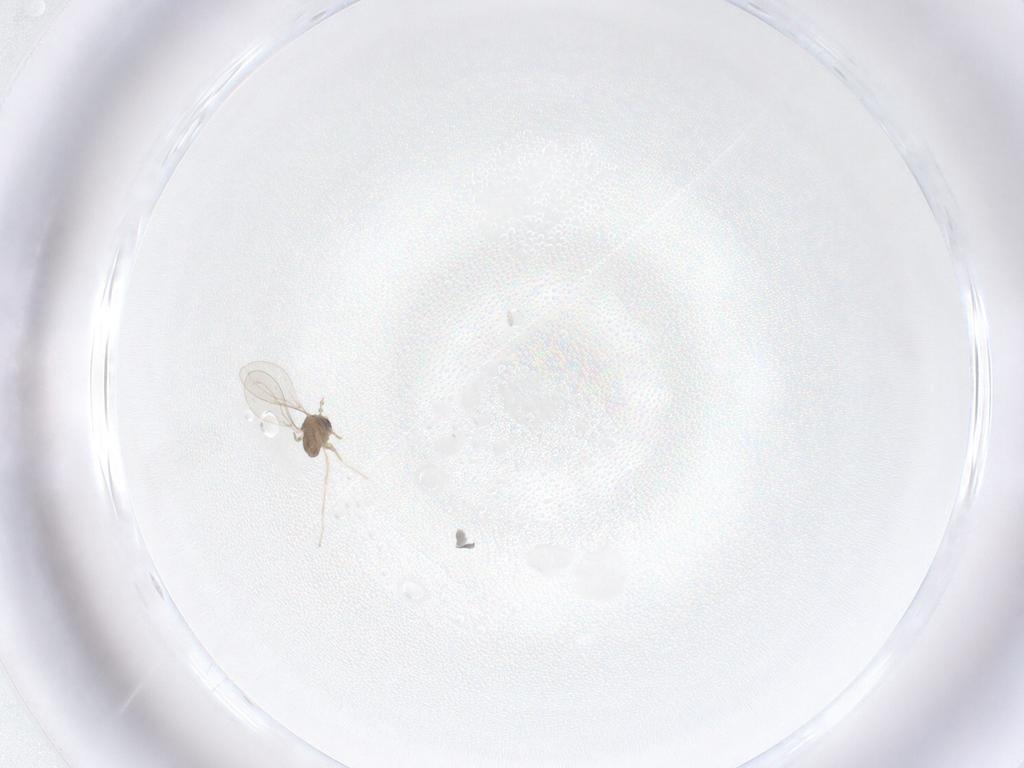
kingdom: Animalia
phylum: Arthropoda
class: Insecta
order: Diptera
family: Cecidomyiidae
